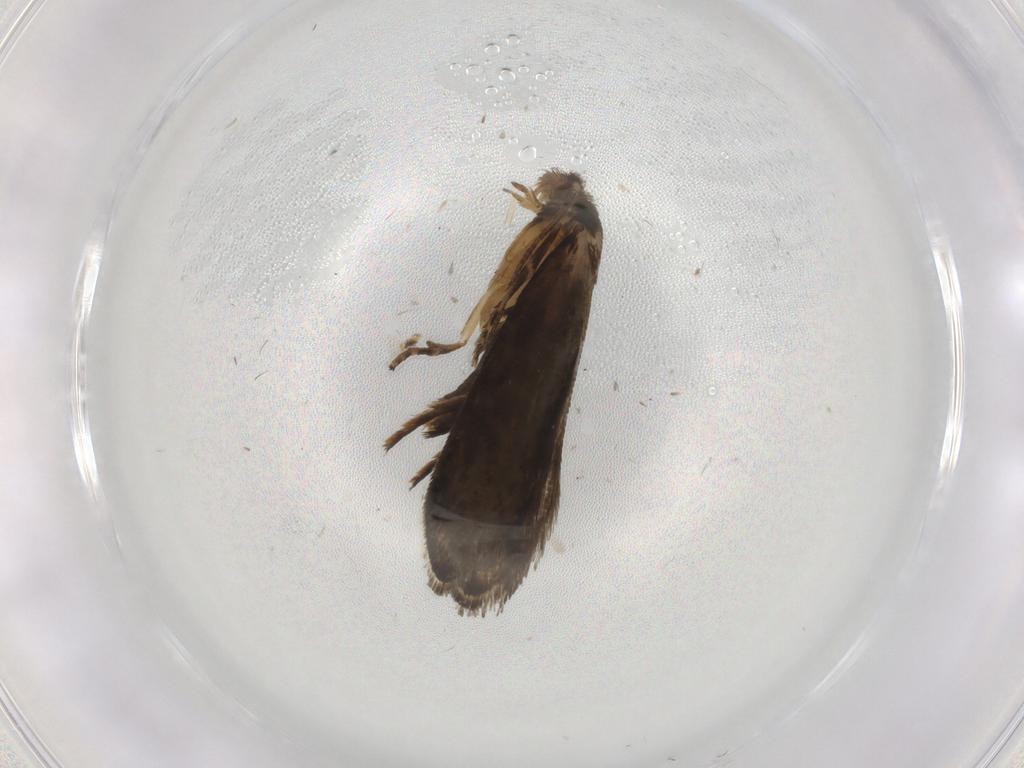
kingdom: Animalia
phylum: Arthropoda
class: Insecta
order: Lepidoptera
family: Crambidae
